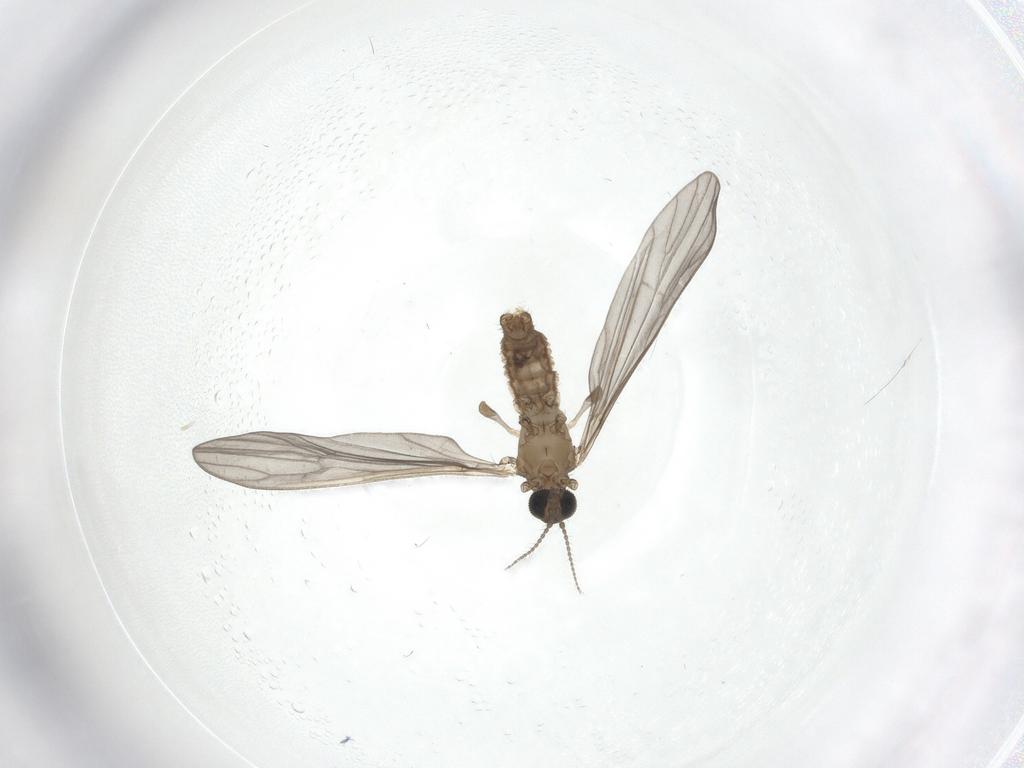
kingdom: Animalia
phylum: Arthropoda
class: Insecta
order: Diptera
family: Limoniidae
